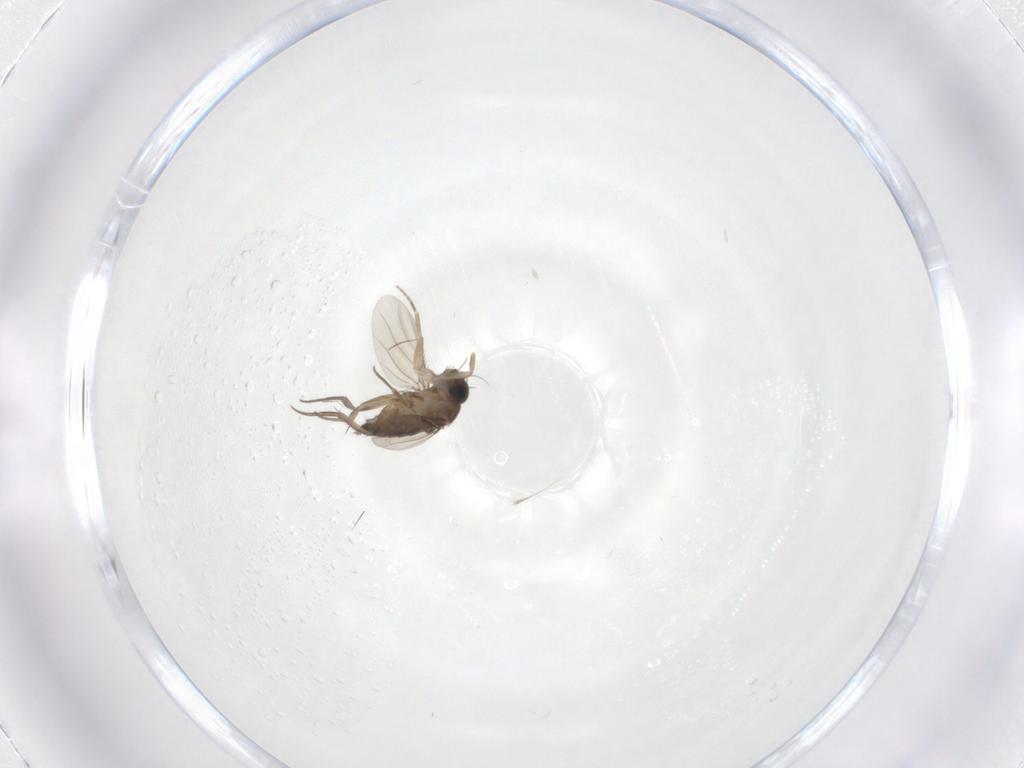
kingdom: Animalia
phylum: Arthropoda
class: Insecta
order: Diptera
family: Phoridae
